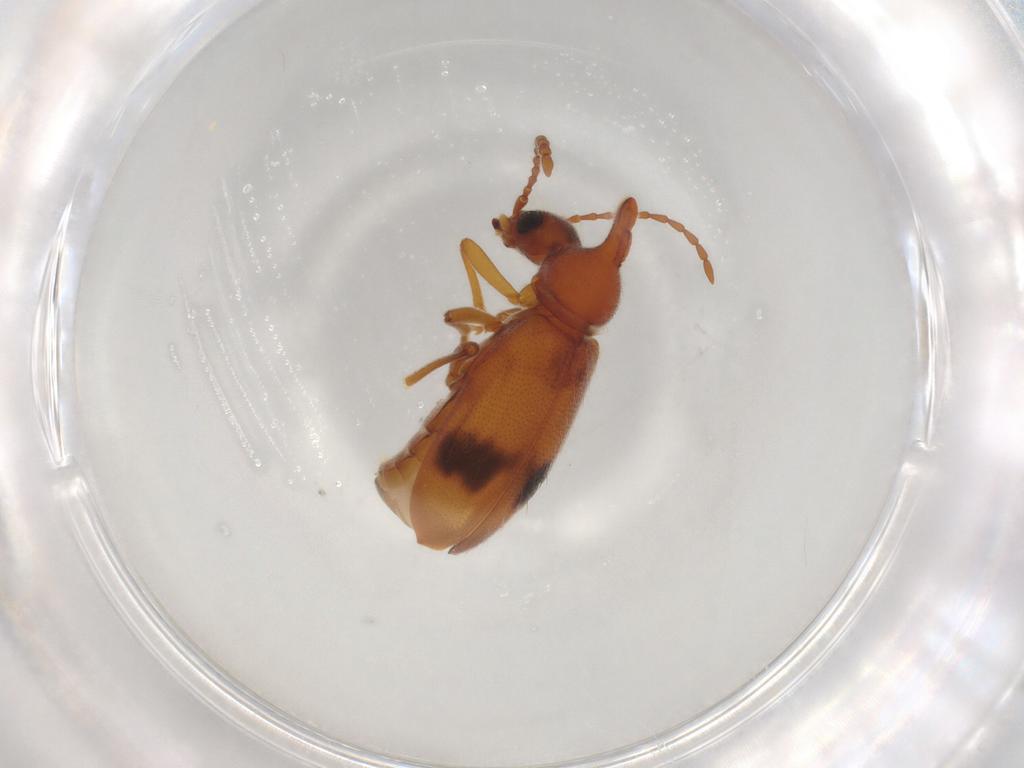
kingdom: Animalia
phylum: Arthropoda
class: Insecta
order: Coleoptera
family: Anthicidae
